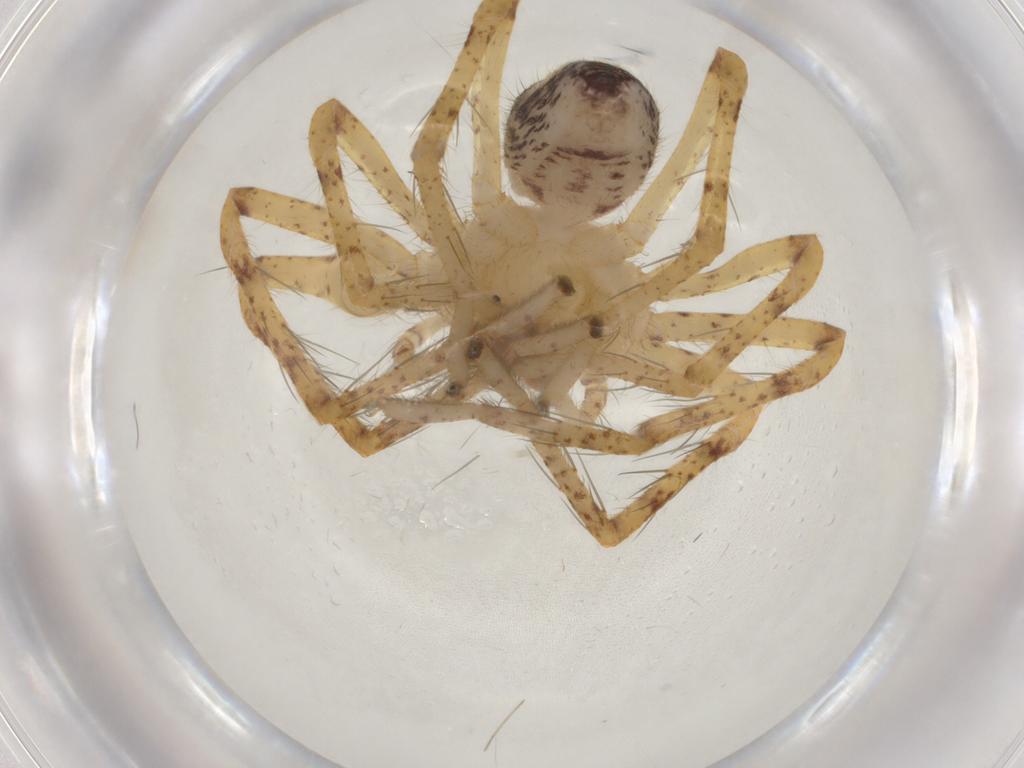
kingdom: Animalia
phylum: Arthropoda
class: Arachnida
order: Araneae
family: Sparassidae
